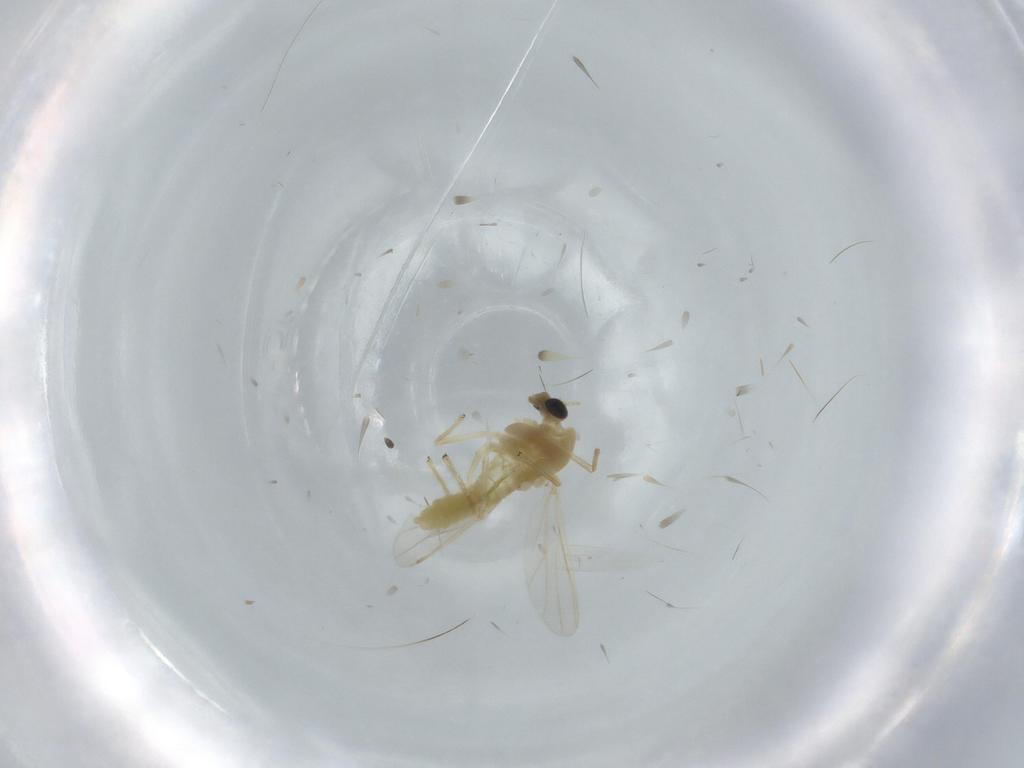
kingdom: Animalia
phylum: Arthropoda
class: Insecta
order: Diptera
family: Chironomidae
